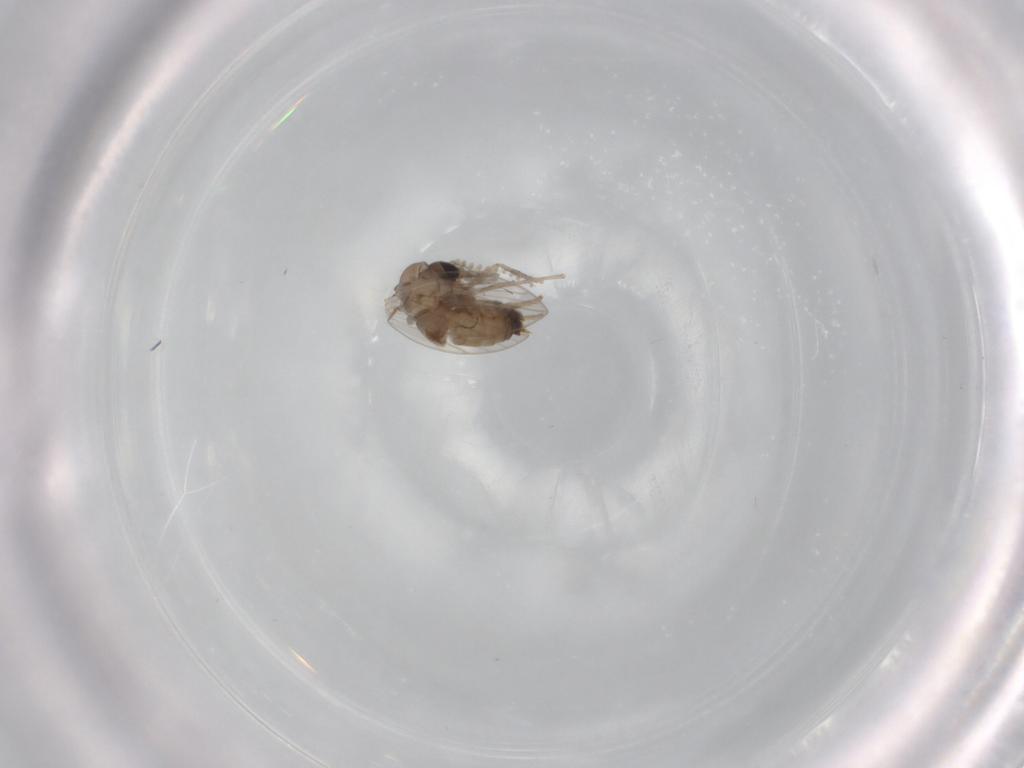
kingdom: Animalia
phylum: Arthropoda
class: Insecta
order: Diptera
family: Psychodidae
